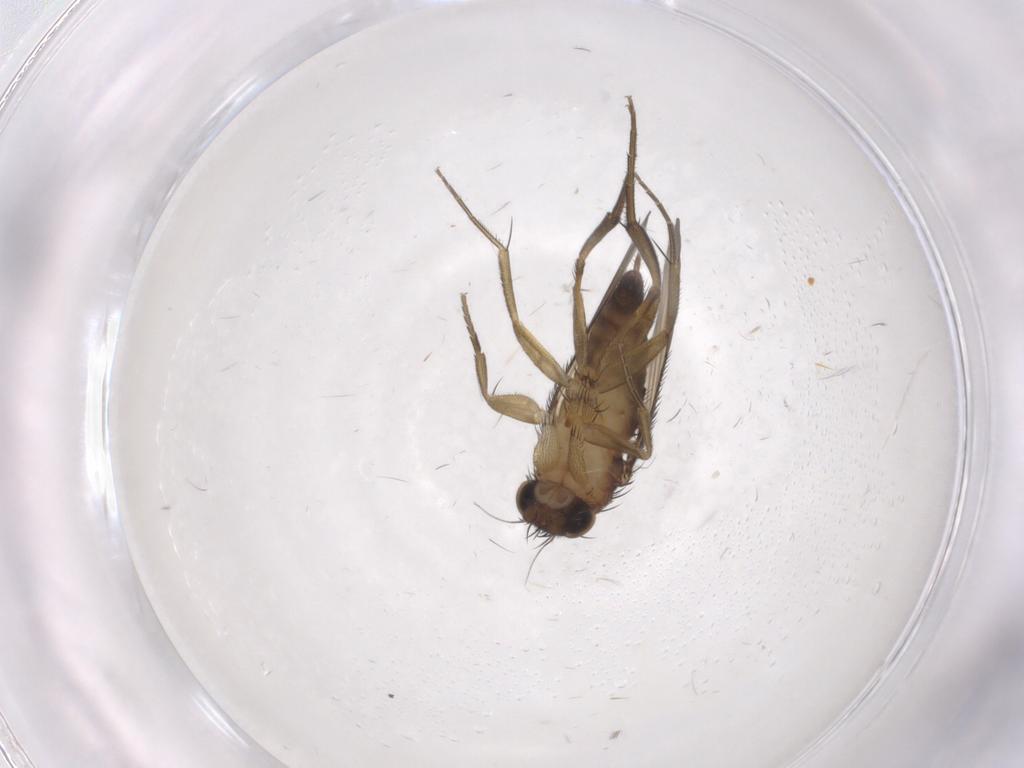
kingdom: Animalia
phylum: Arthropoda
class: Insecta
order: Diptera
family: Phoridae
